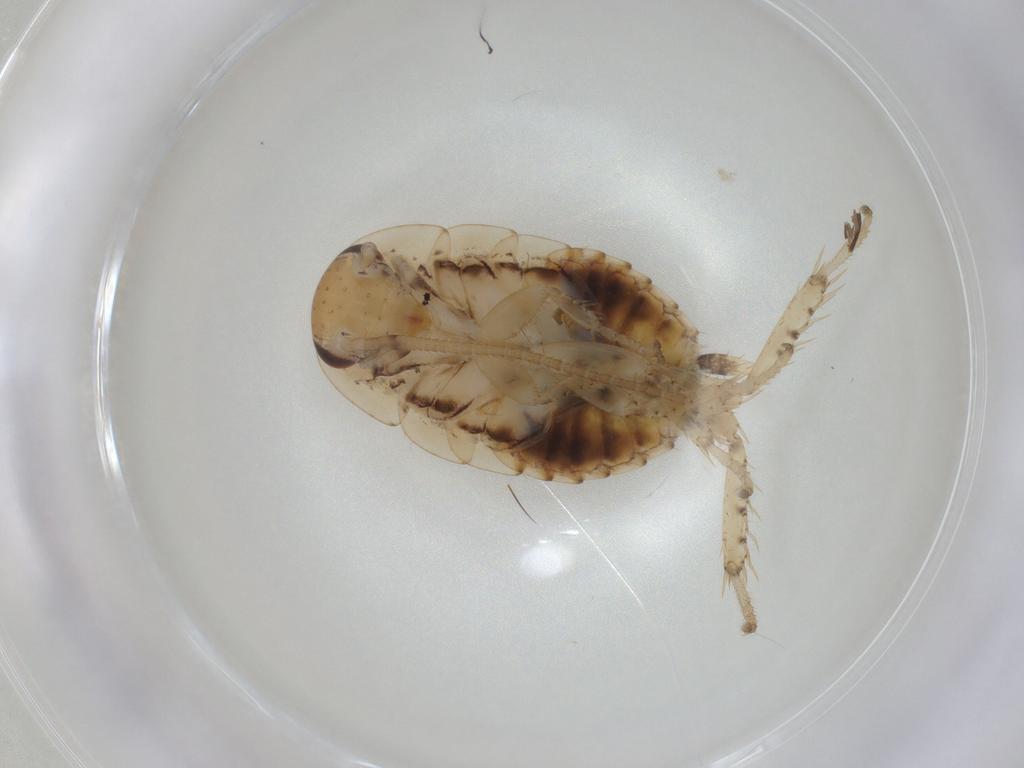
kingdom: Animalia
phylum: Arthropoda
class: Insecta
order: Blattodea
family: Blaberidae
